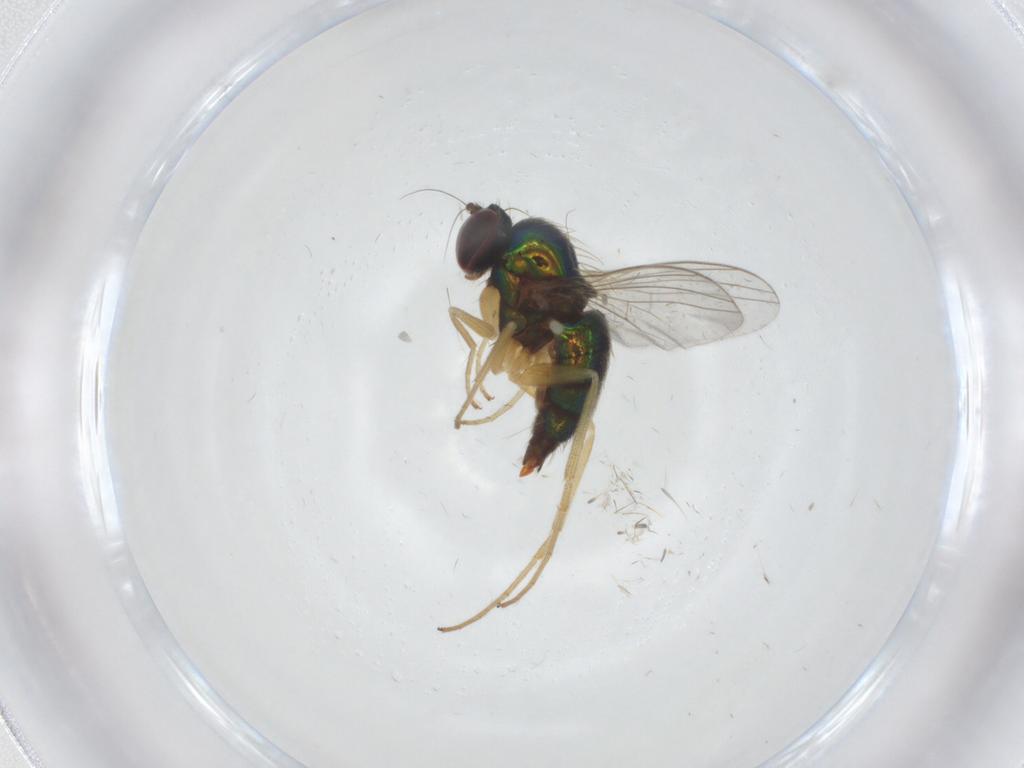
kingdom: Animalia
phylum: Arthropoda
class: Insecta
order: Diptera
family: Dolichopodidae
